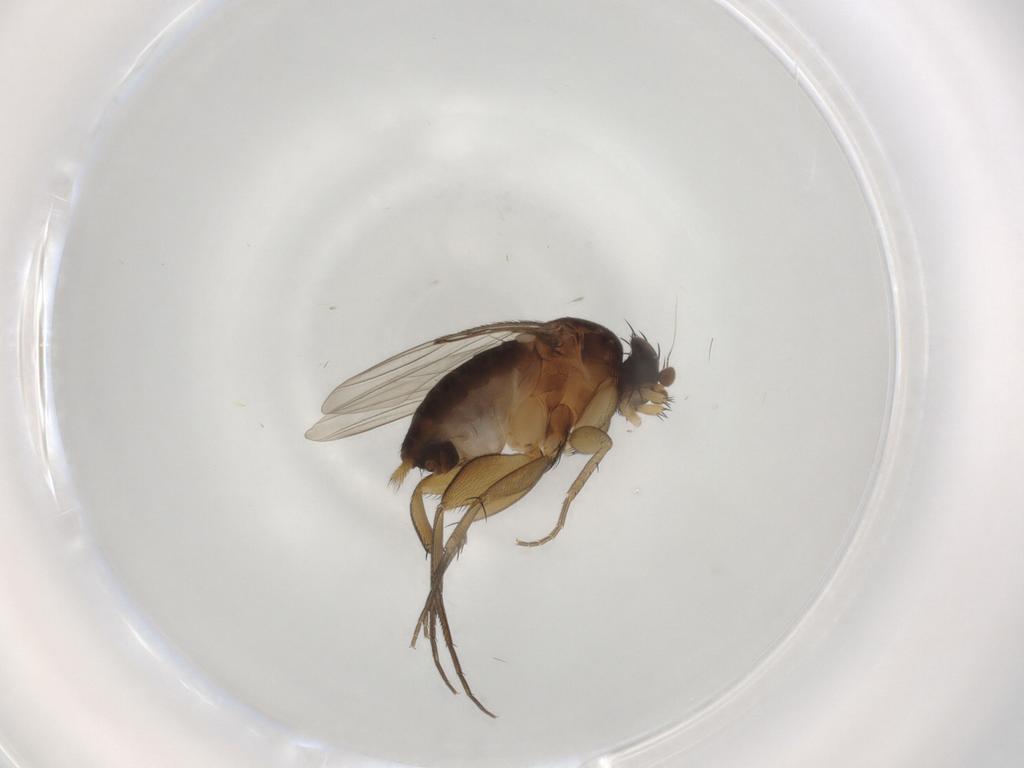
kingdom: Animalia
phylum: Arthropoda
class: Insecta
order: Diptera
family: Phoridae
